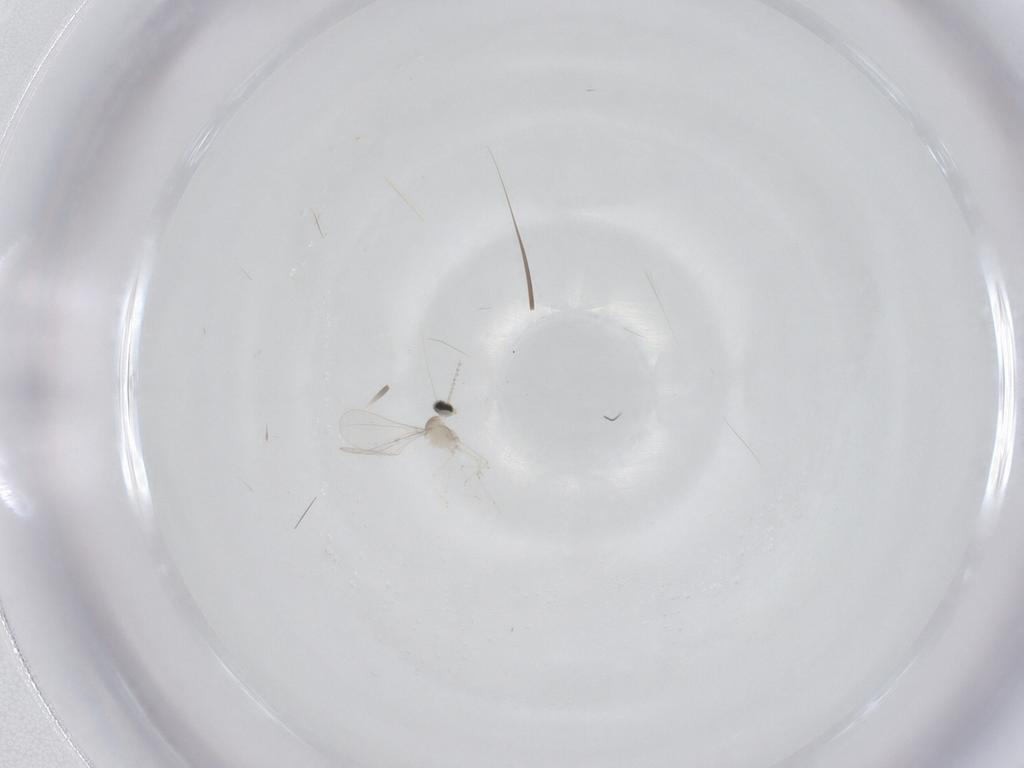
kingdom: Animalia
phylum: Arthropoda
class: Insecta
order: Diptera
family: Cecidomyiidae
